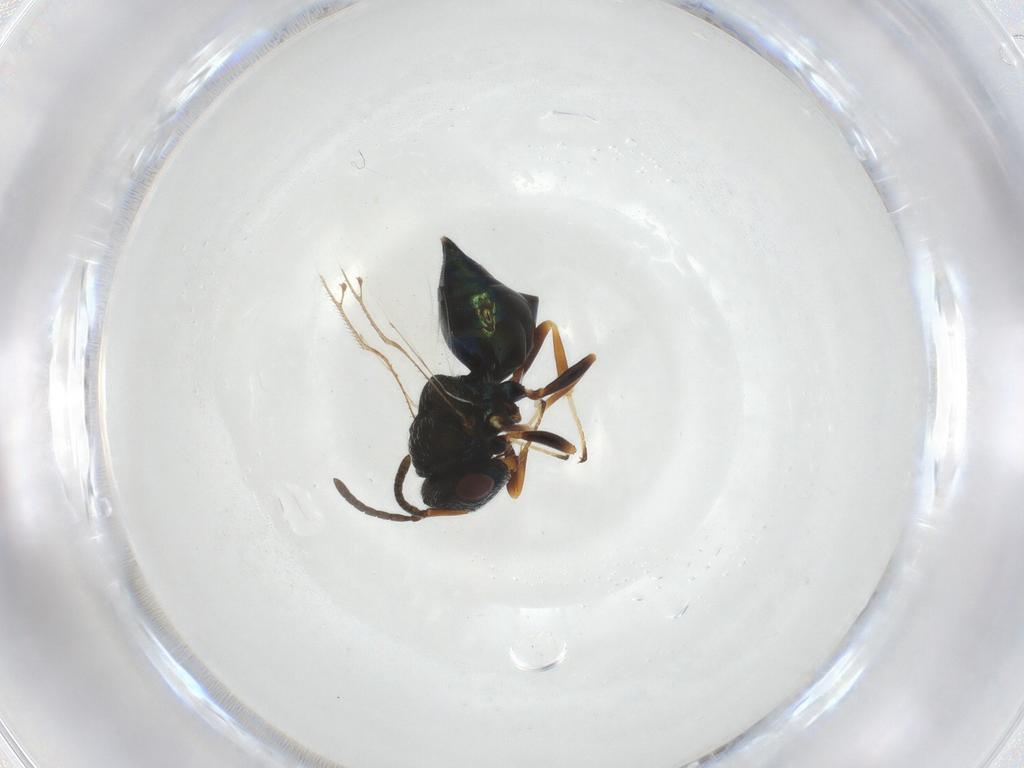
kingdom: Animalia
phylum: Arthropoda
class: Insecta
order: Hymenoptera
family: Pteromalidae
